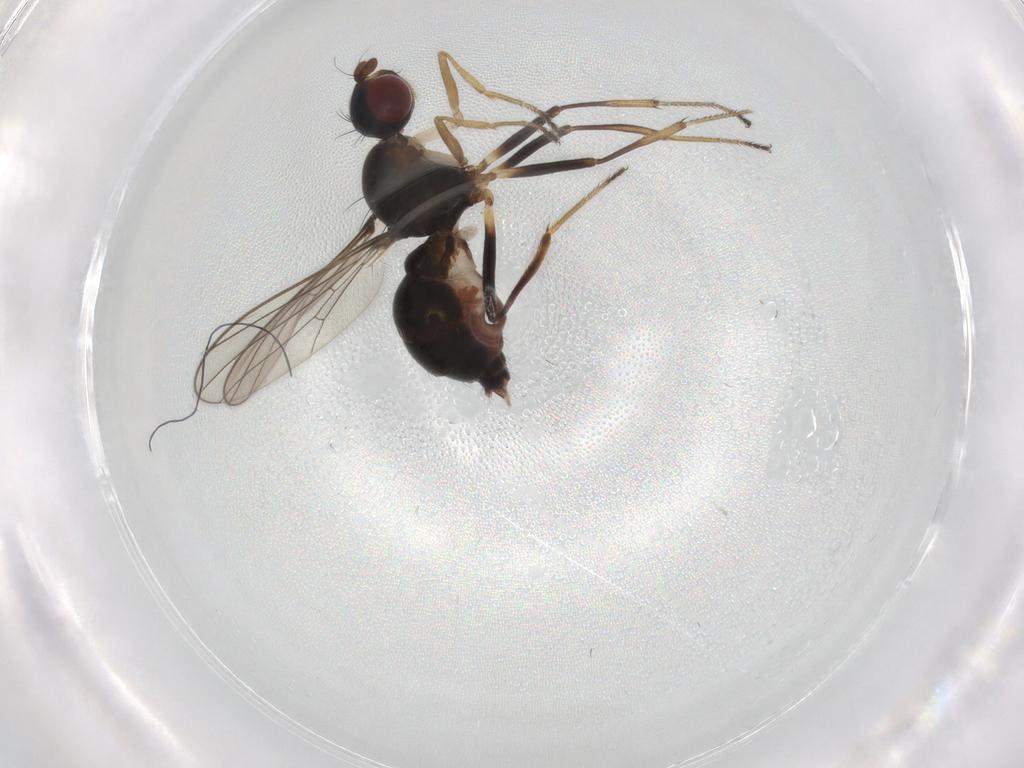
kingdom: Animalia
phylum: Arthropoda
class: Insecta
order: Diptera
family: Sepsidae
